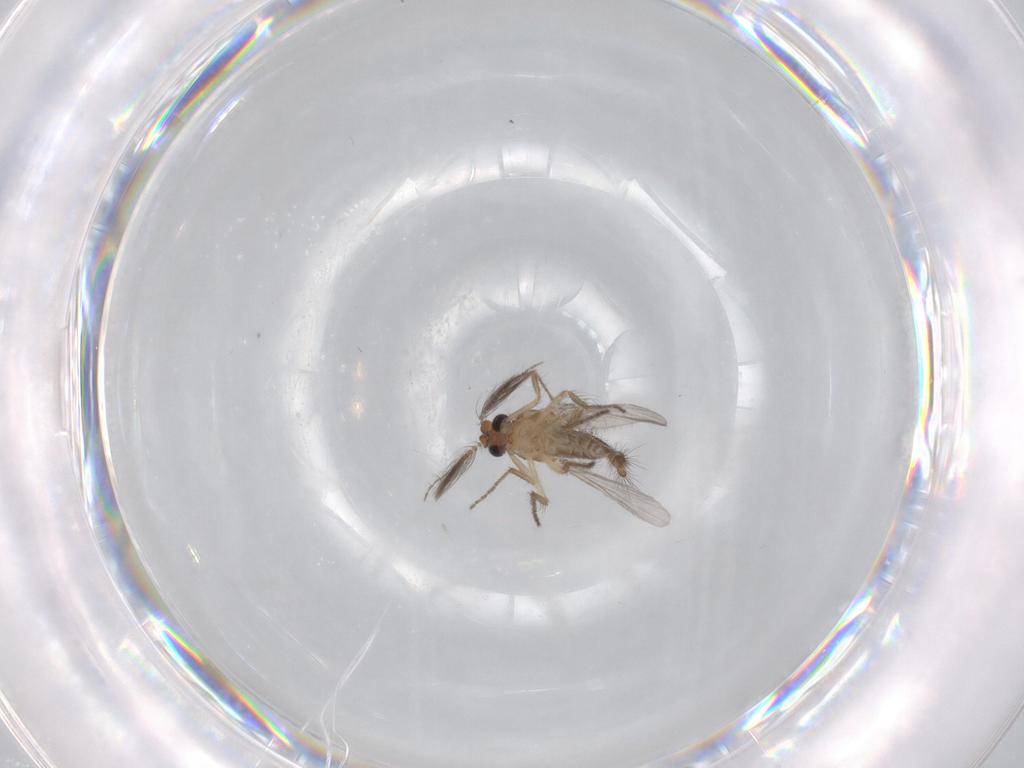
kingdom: Animalia
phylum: Arthropoda
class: Insecta
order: Diptera
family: Ceratopogonidae
